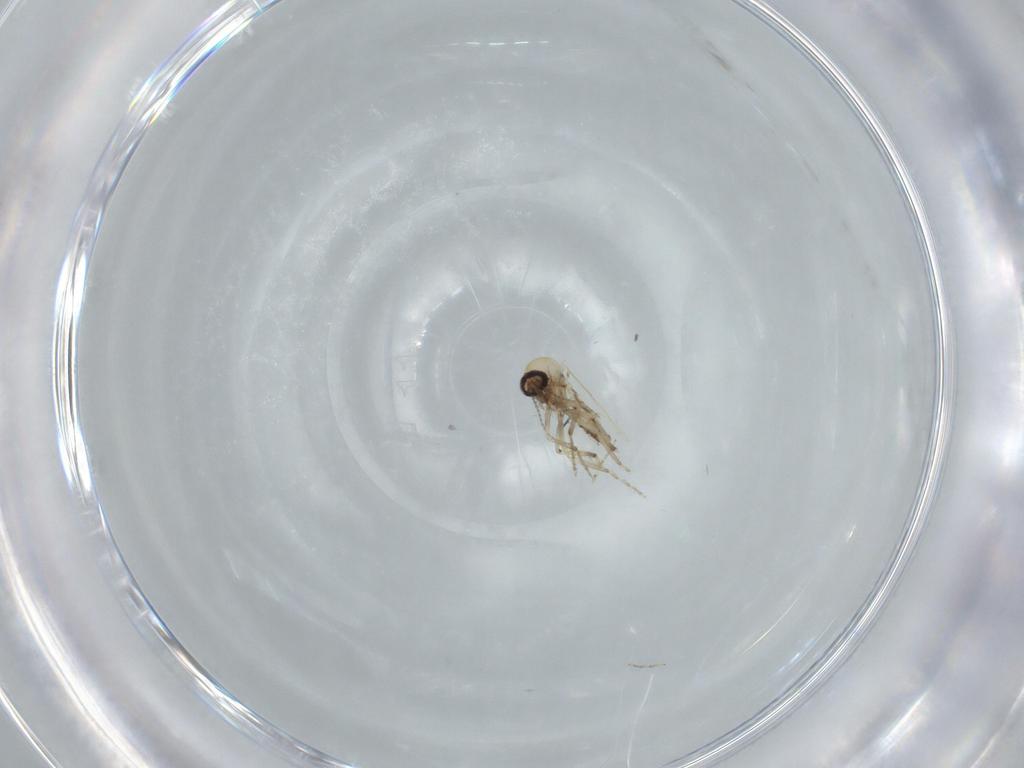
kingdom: Animalia
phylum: Arthropoda
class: Insecta
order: Diptera
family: Ceratopogonidae
